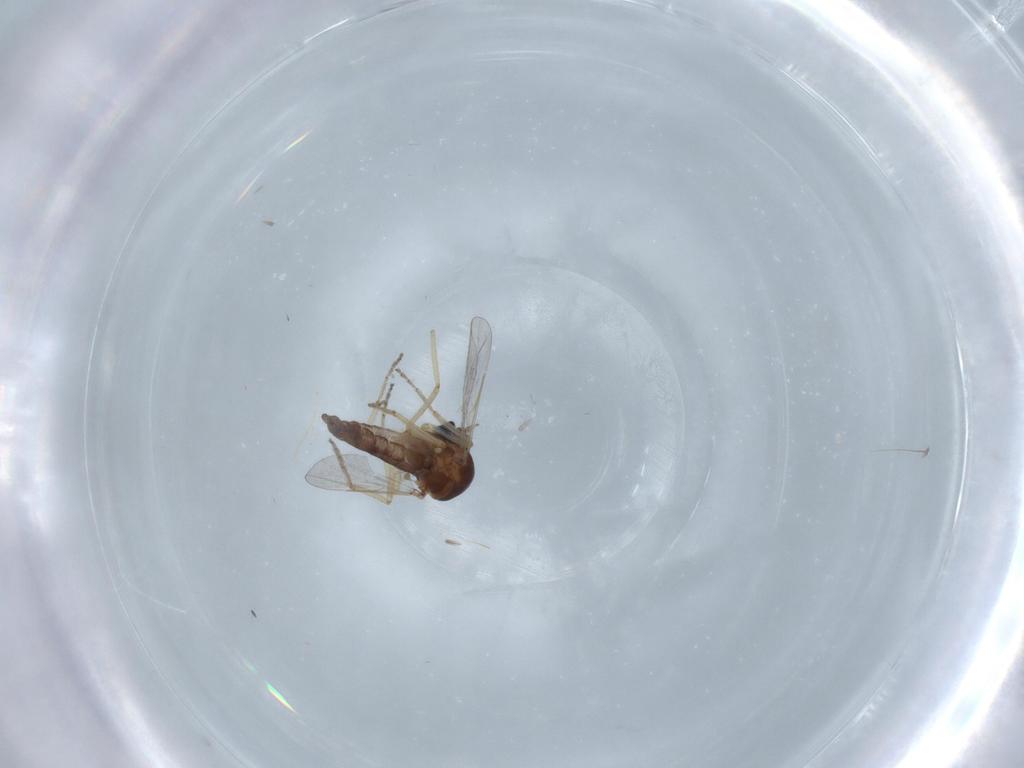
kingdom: Animalia
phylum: Arthropoda
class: Insecta
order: Diptera
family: Ceratopogonidae
